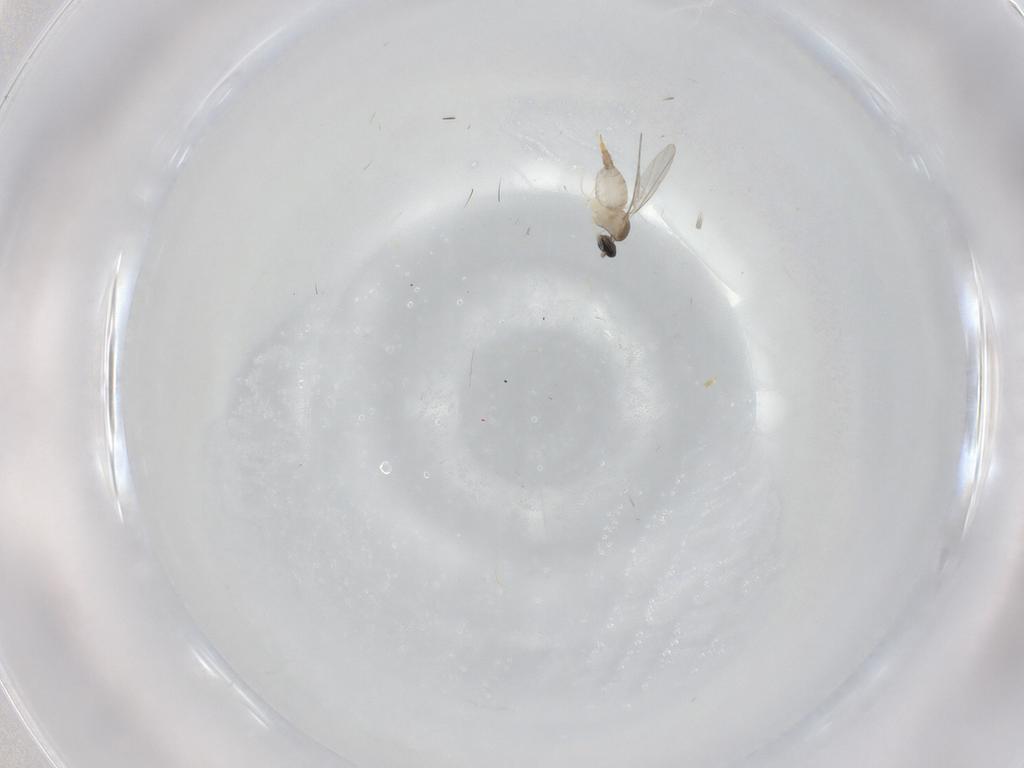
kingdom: Animalia
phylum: Arthropoda
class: Insecta
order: Diptera
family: Cecidomyiidae
